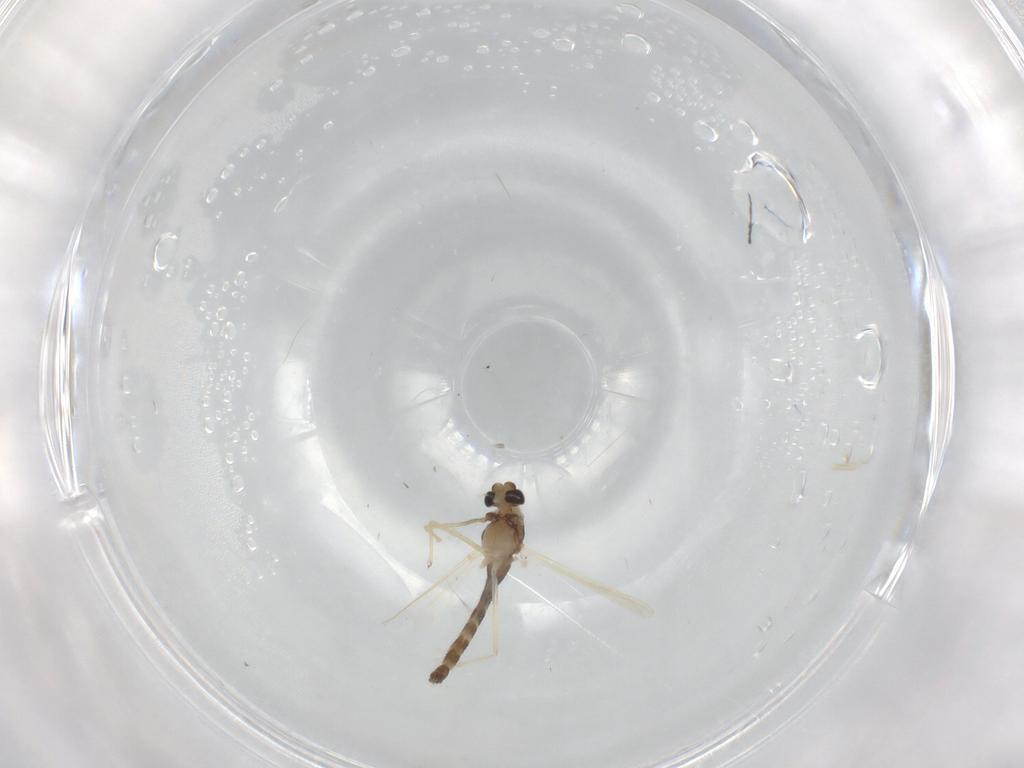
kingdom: Animalia
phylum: Arthropoda
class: Insecta
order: Diptera
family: Chironomidae
